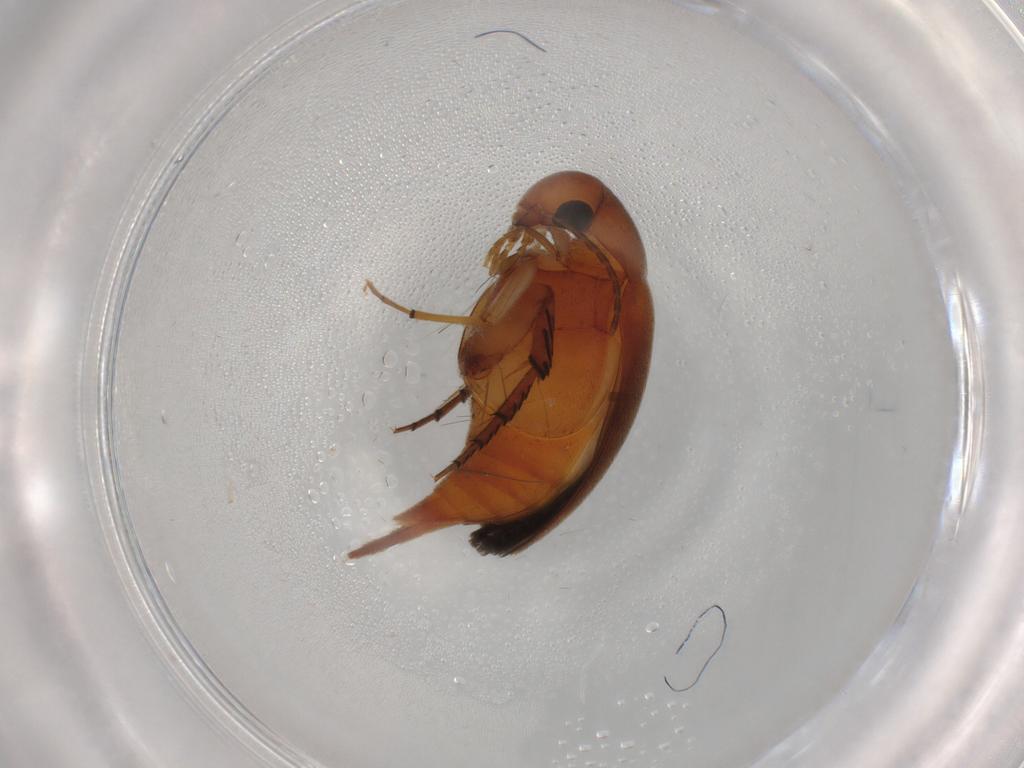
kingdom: Animalia
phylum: Arthropoda
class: Insecta
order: Coleoptera
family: Mordellidae
